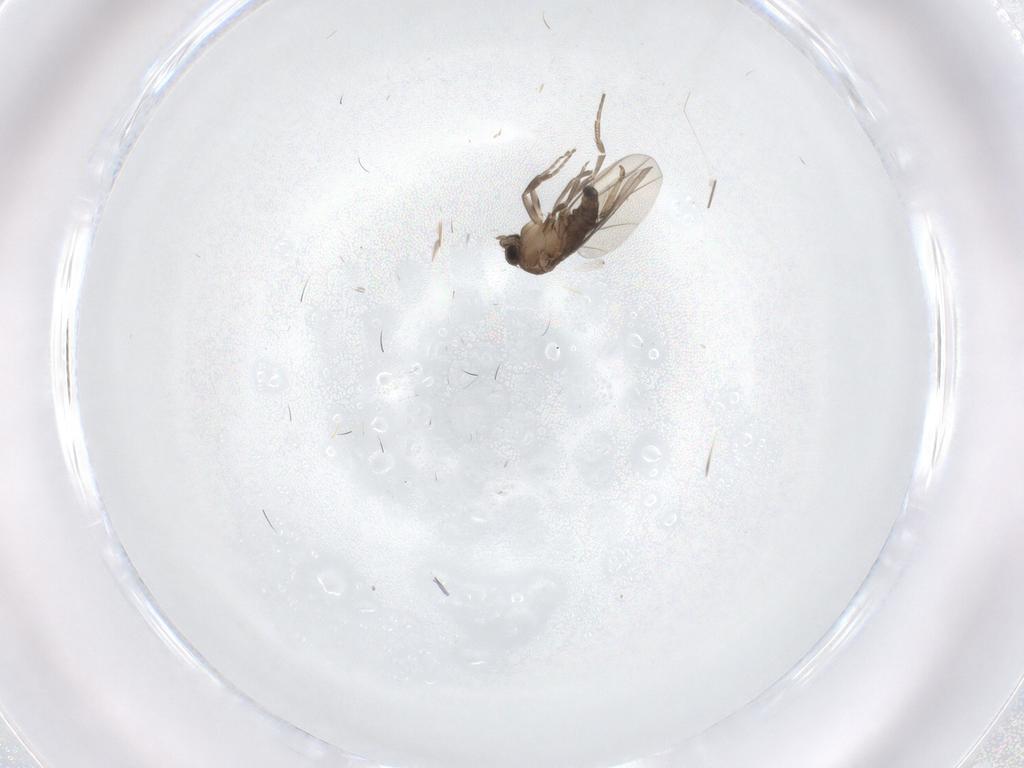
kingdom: Animalia
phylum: Arthropoda
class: Insecta
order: Diptera
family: Phoridae
